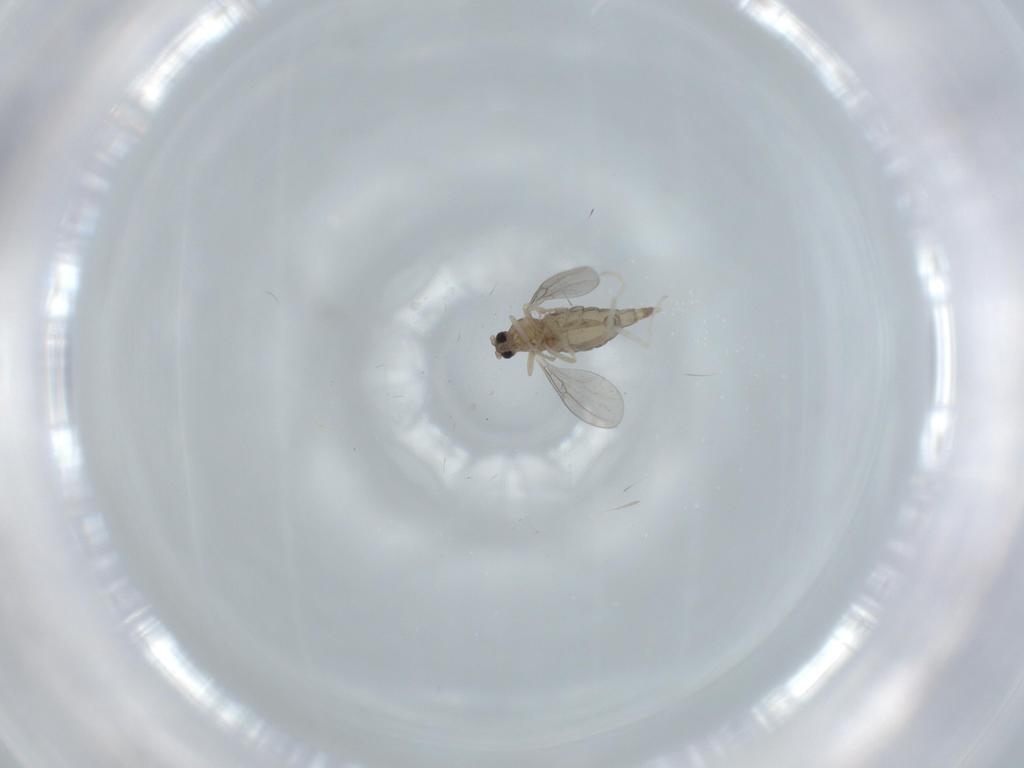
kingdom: Animalia
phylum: Arthropoda
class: Insecta
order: Diptera
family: Cecidomyiidae
